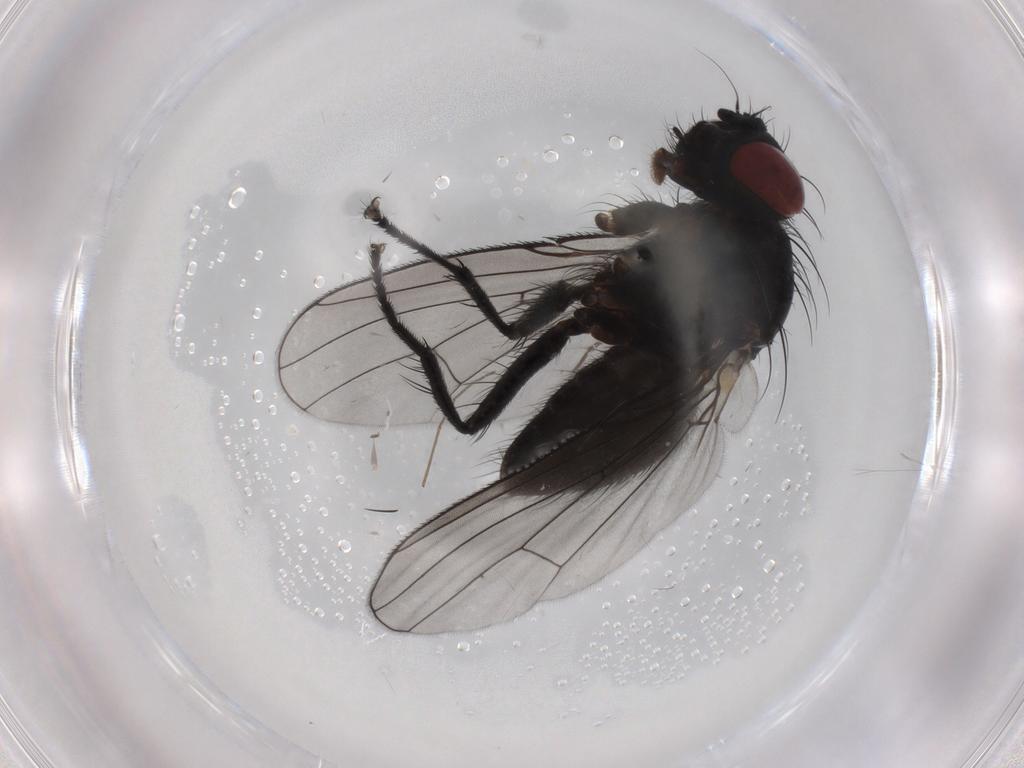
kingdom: Animalia
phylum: Arthropoda
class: Insecta
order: Diptera
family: Muscidae
